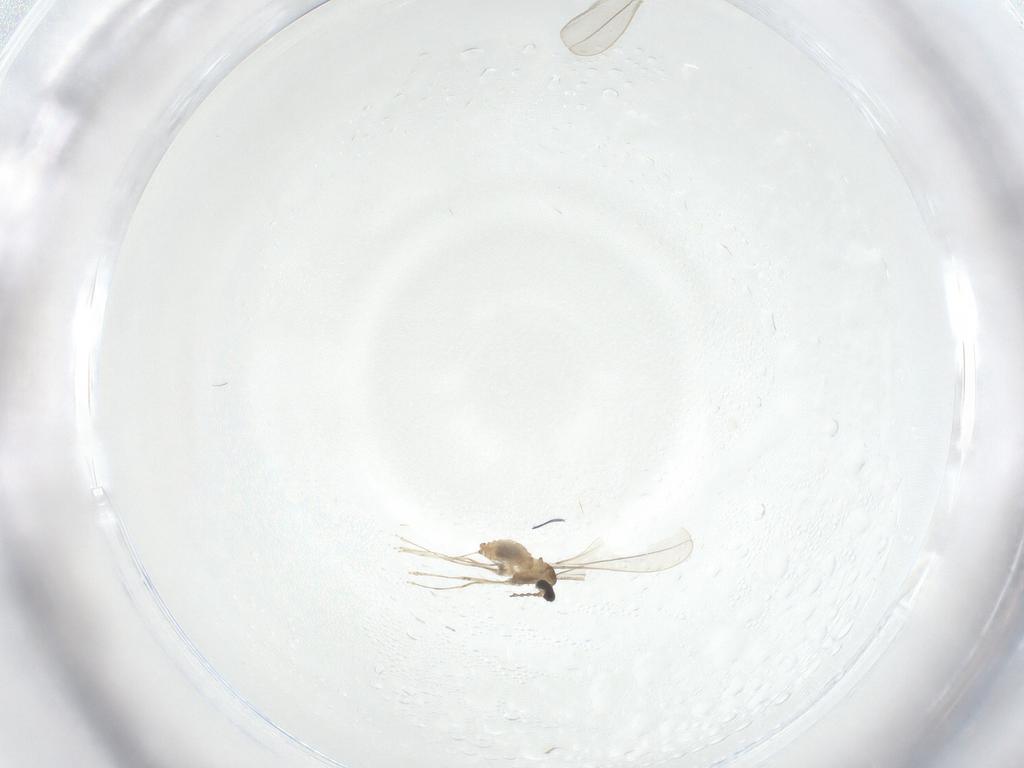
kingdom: Animalia
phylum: Arthropoda
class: Insecta
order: Diptera
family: Cecidomyiidae
